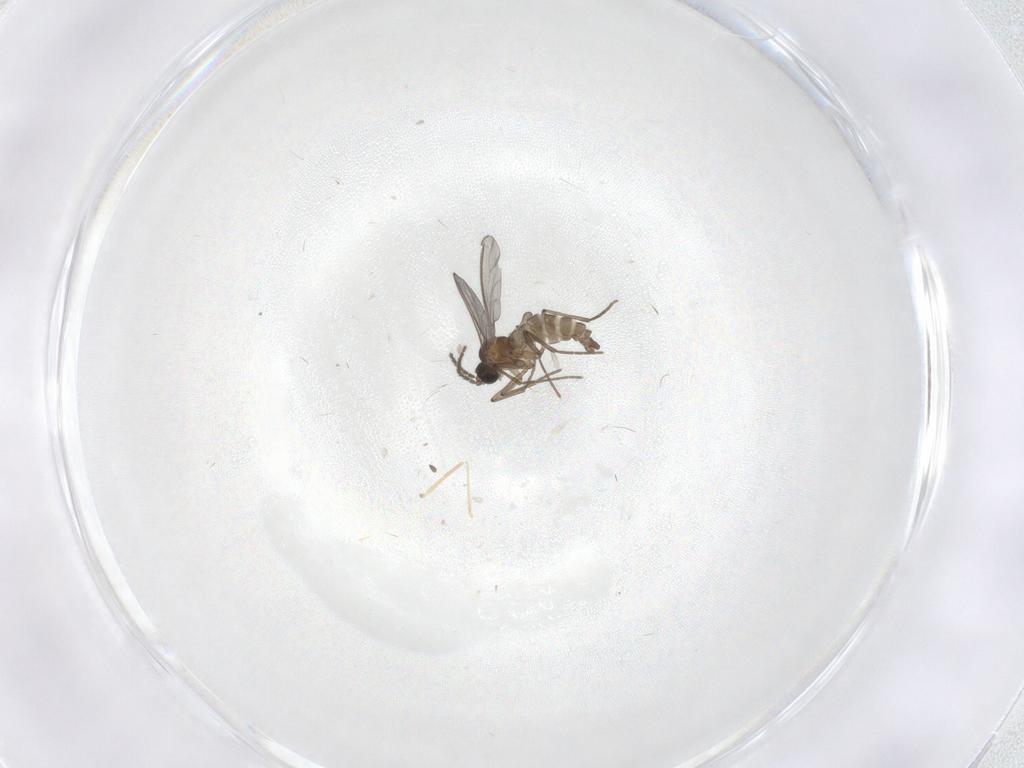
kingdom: Animalia
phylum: Arthropoda
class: Insecta
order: Diptera
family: Sciaridae
